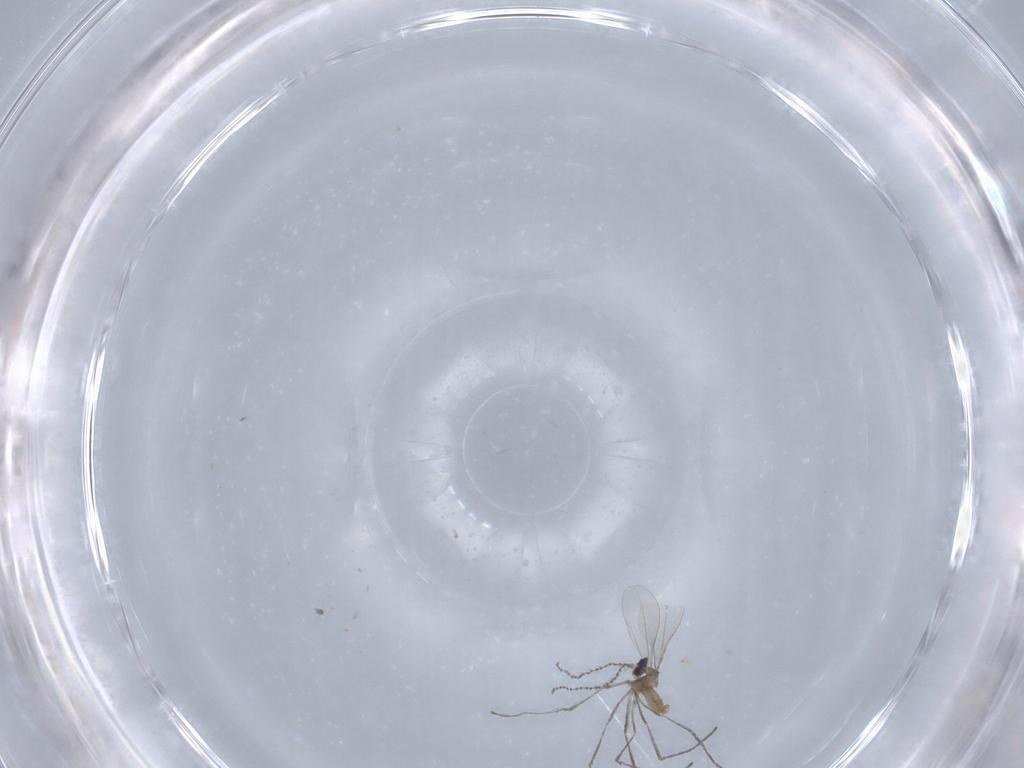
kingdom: Animalia
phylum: Arthropoda
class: Insecta
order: Diptera
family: Cecidomyiidae
